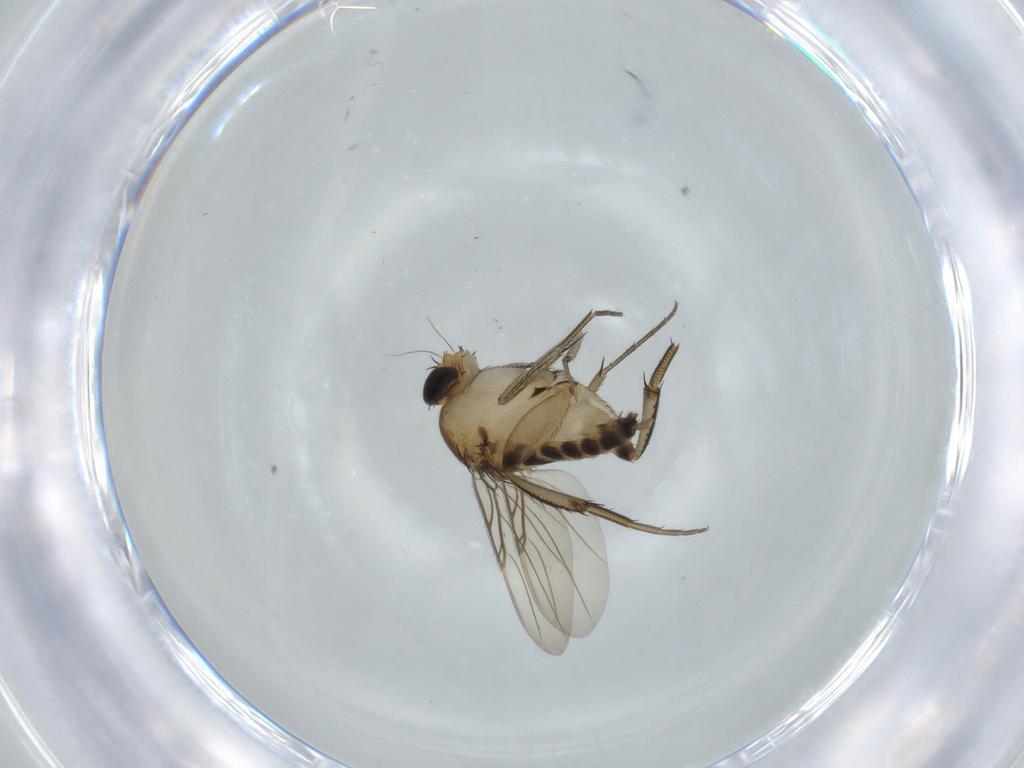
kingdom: Animalia
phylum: Arthropoda
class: Insecta
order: Diptera
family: Phoridae
